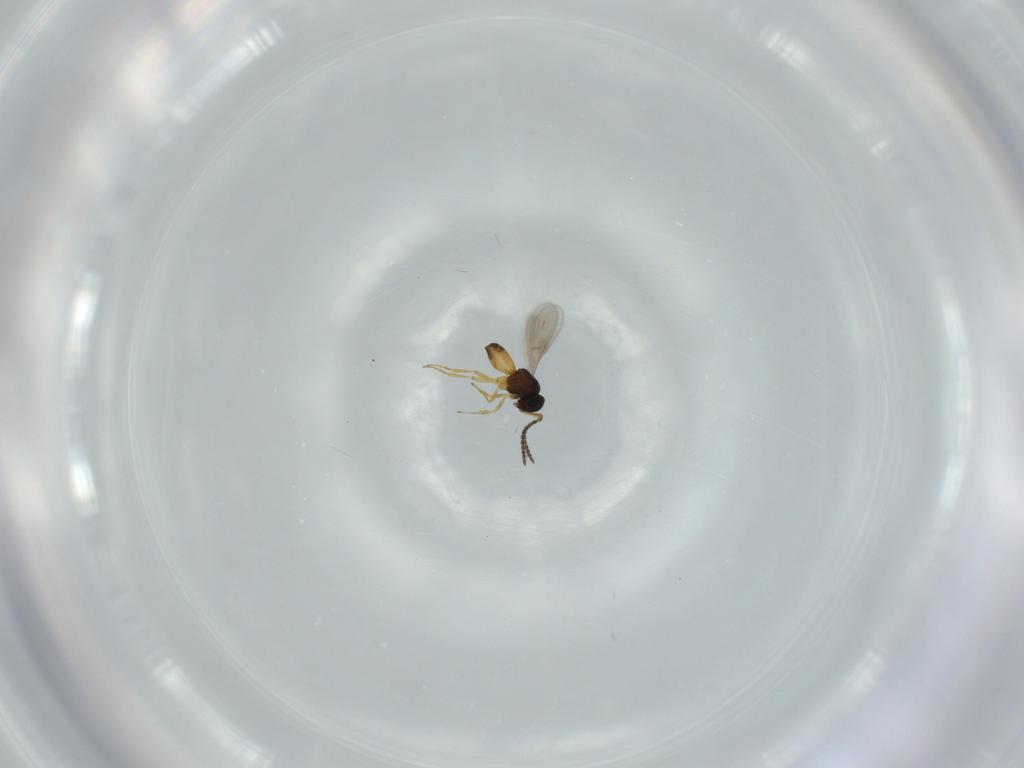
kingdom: Animalia
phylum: Arthropoda
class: Insecta
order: Hymenoptera
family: Scelionidae
